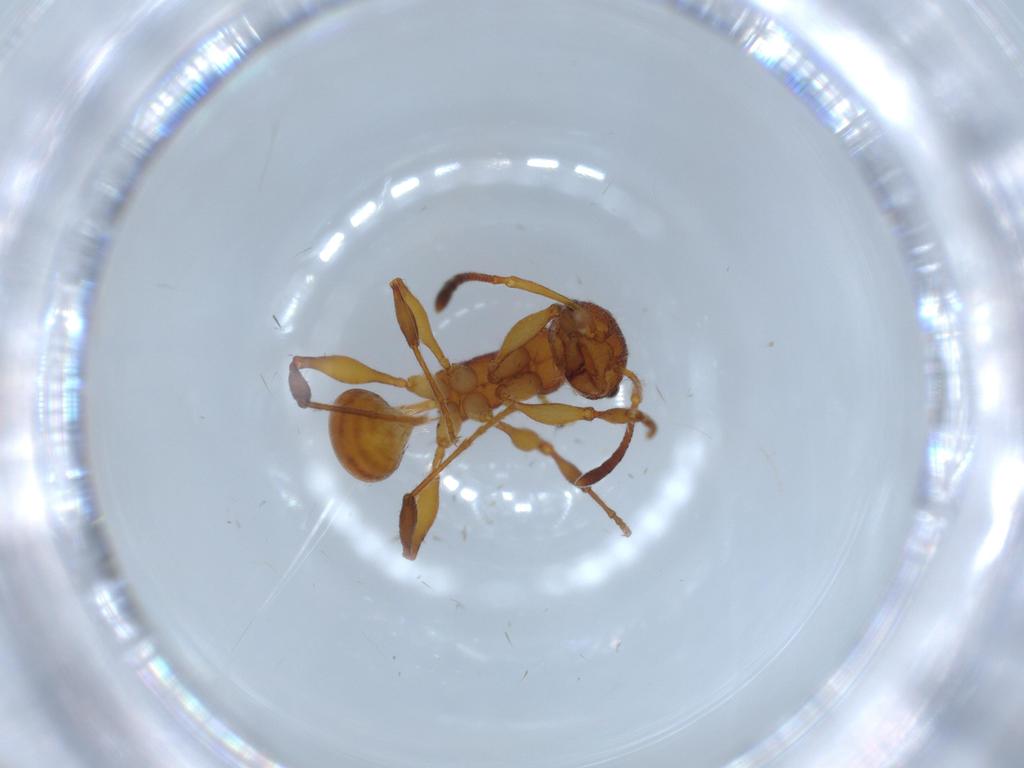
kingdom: Animalia
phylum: Arthropoda
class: Insecta
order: Hymenoptera
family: Formicidae
